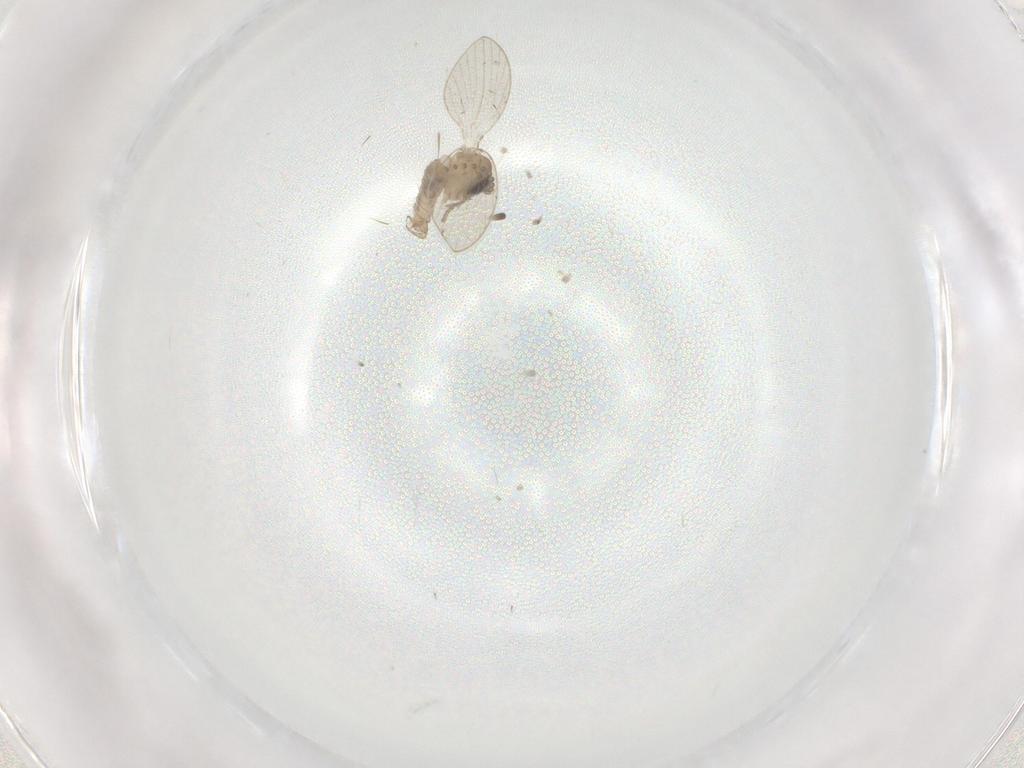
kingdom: Animalia
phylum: Arthropoda
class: Insecta
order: Diptera
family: Psychodidae
